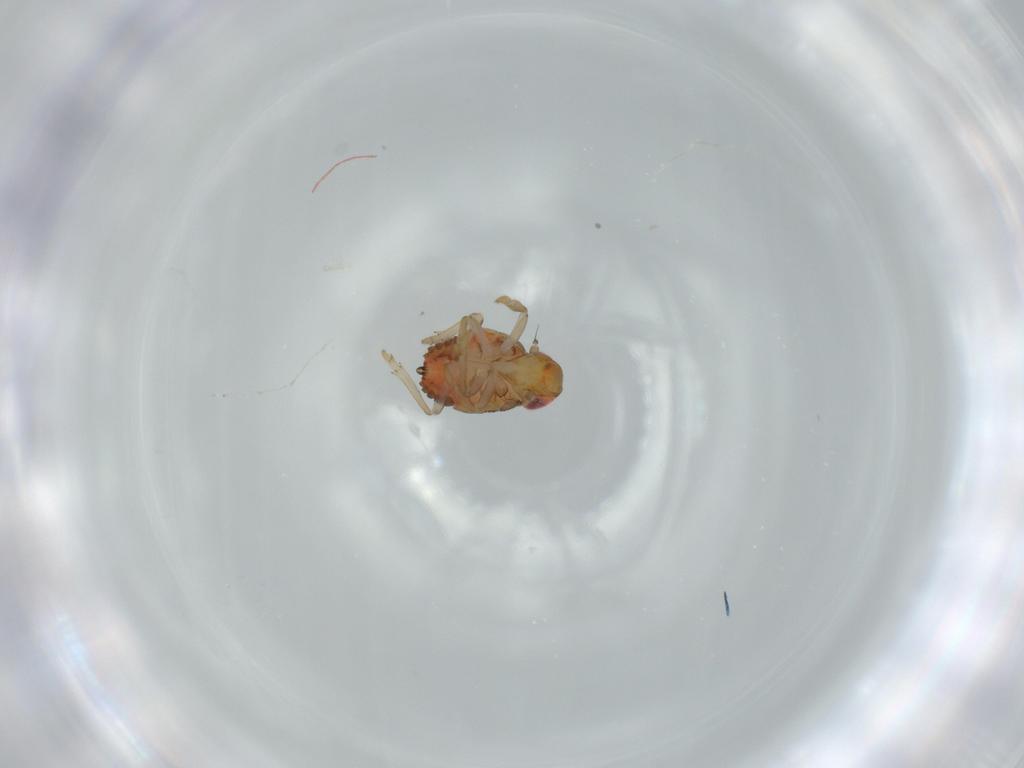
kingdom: Animalia
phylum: Arthropoda
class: Insecta
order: Hemiptera
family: Issidae
